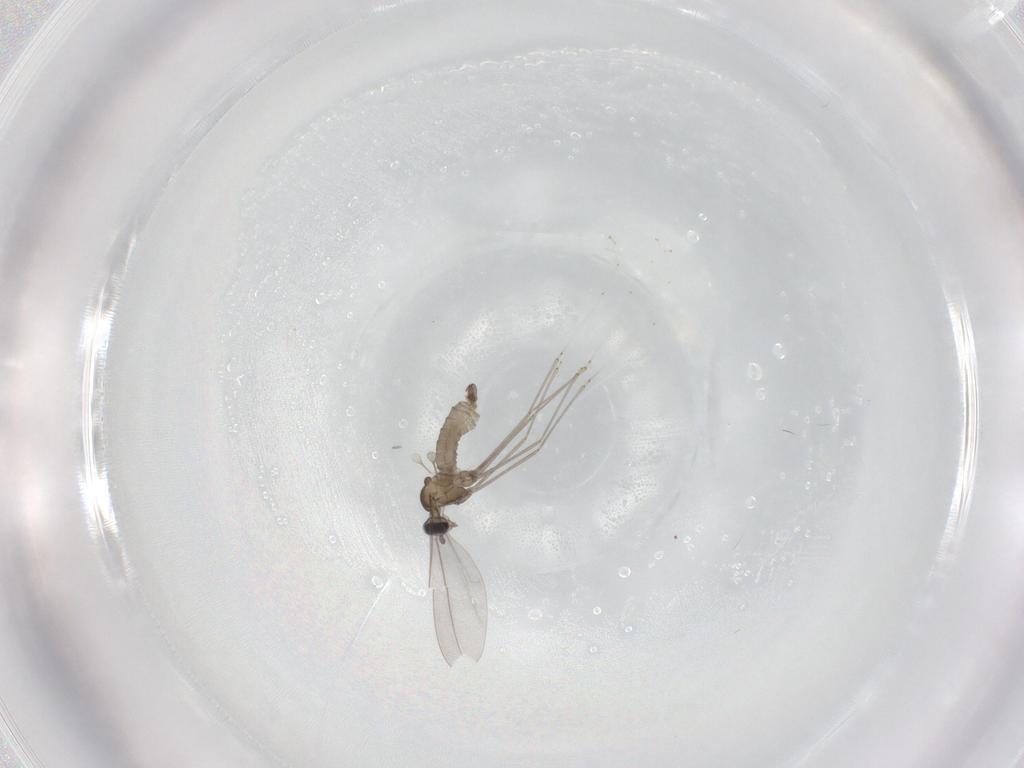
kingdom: Animalia
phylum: Arthropoda
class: Insecta
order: Diptera
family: Cecidomyiidae
